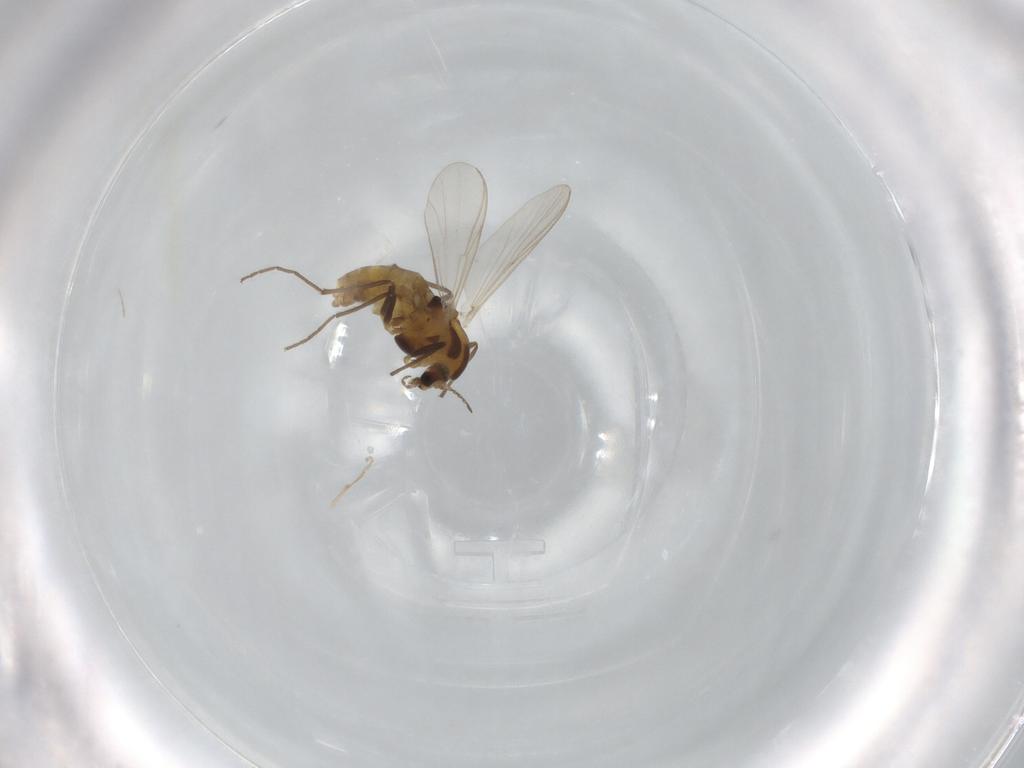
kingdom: Animalia
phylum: Arthropoda
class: Insecta
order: Diptera
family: Chironomidae
